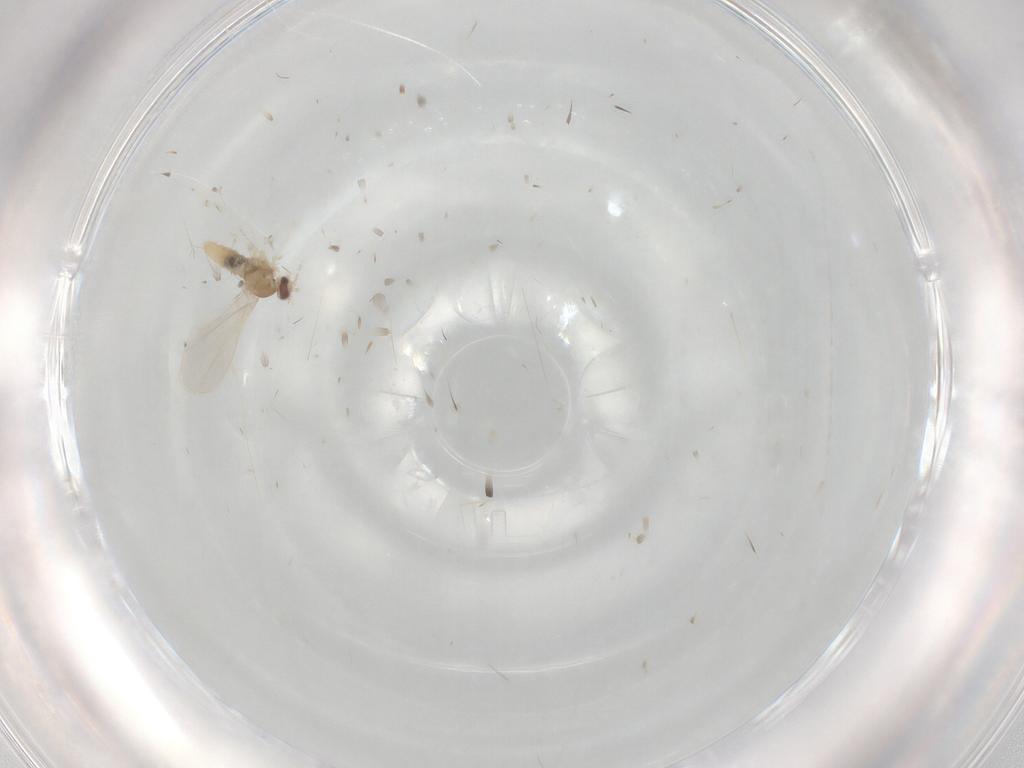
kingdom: Animalia
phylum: Arthropoda
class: Insecta
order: Diptera
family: Cecidomyiidae
